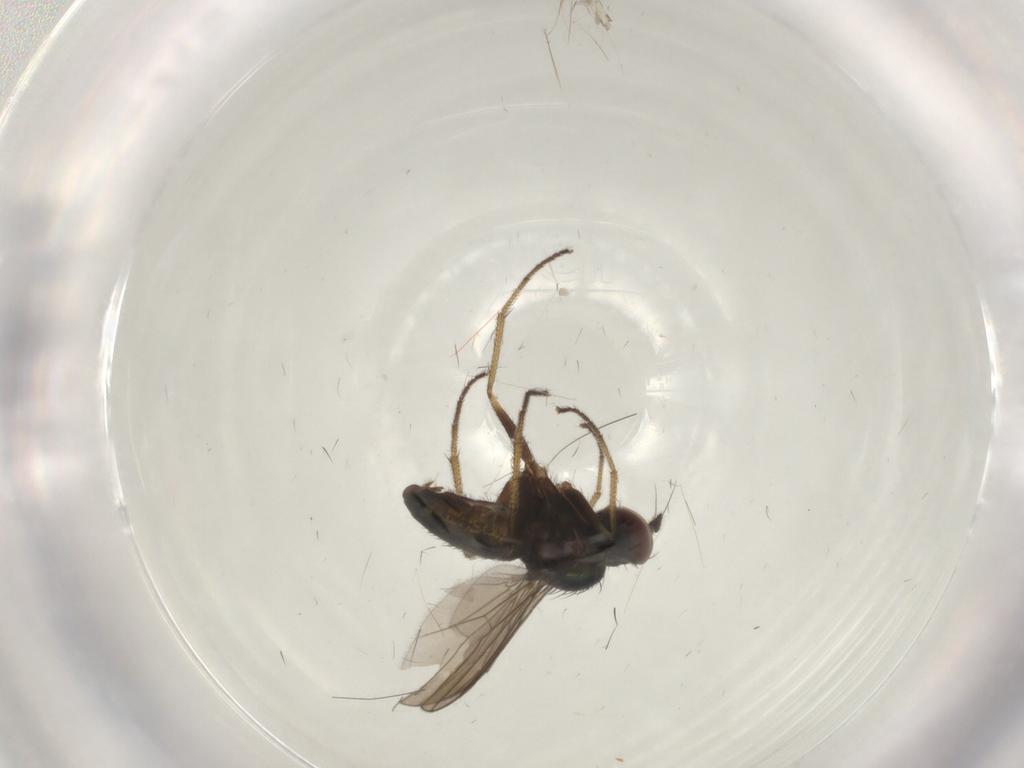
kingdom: Animalia
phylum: Arthropoda
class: Insecta
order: Diptera
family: Dolichopodidae
